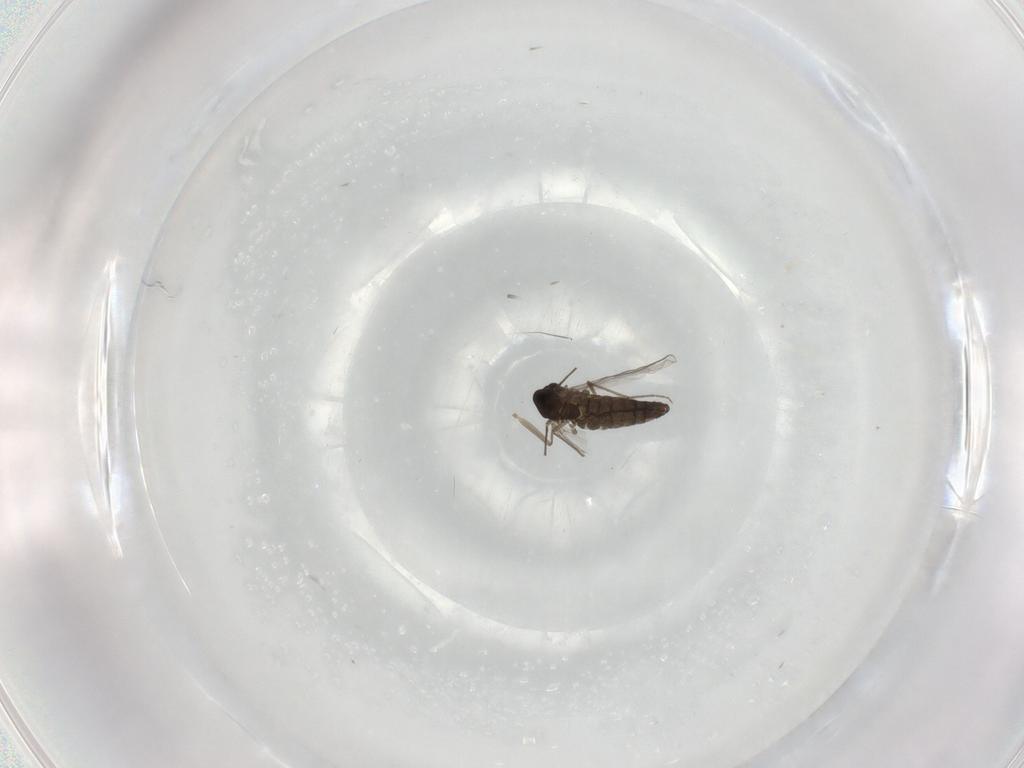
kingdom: Animalia
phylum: Arthropoda
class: Insecta
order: Diptera
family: Chironomidae
